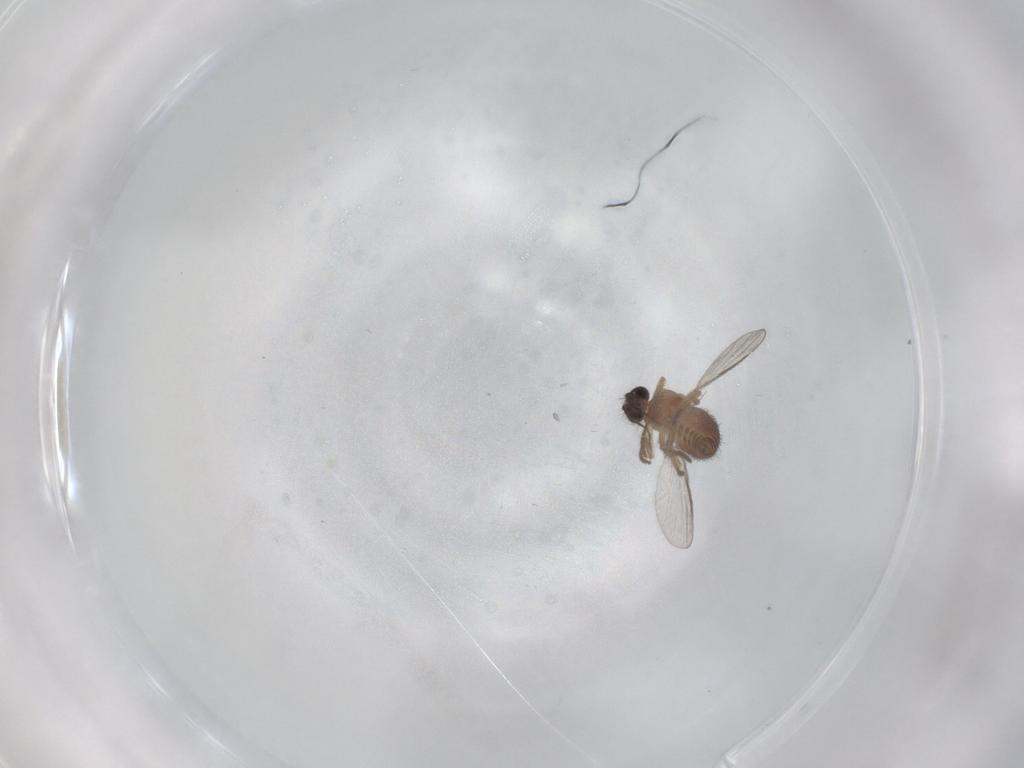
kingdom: Animalia
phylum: Arthropoda
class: Insecta
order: Diptera
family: Ceratopogonidae
